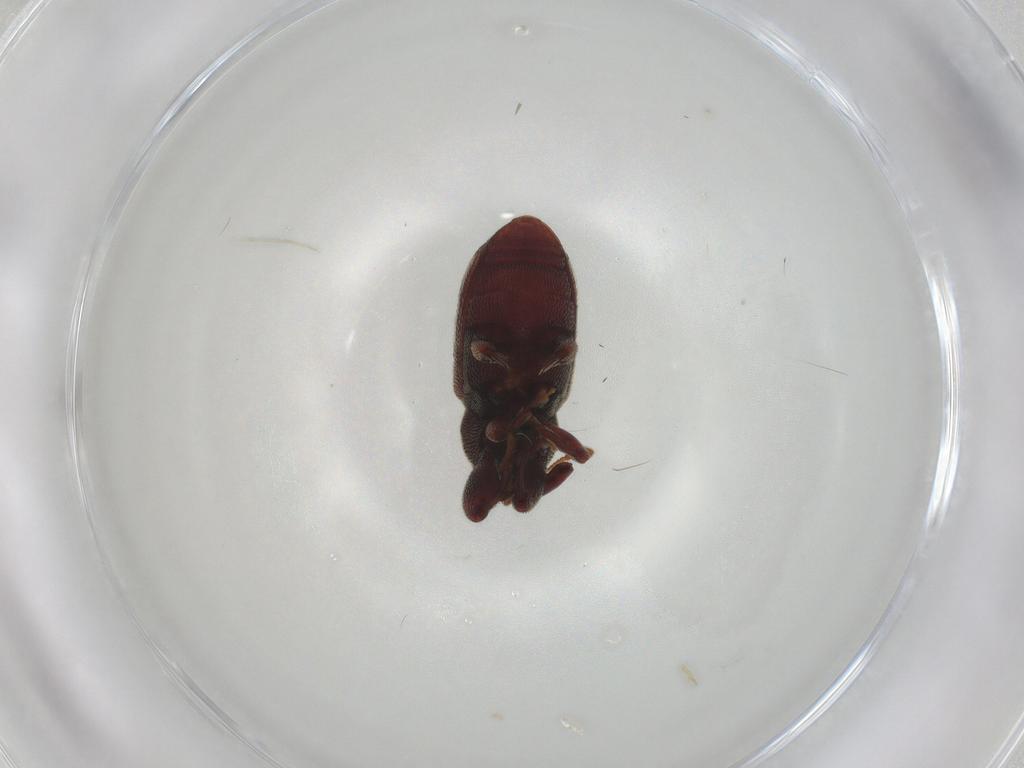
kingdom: Animalia
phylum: Arthropoda
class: Insecta
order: Coleoptera
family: Curculionidae
